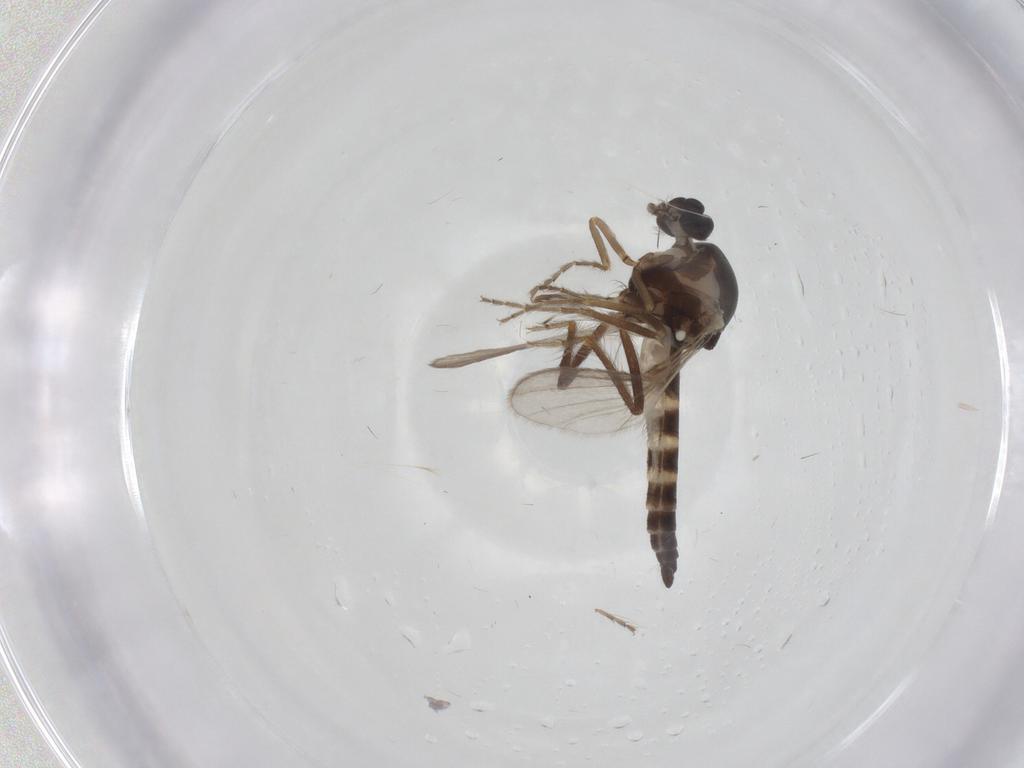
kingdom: Animalia
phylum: Arthropoda
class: Insecta
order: Diptera
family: Ceratopogonidae
